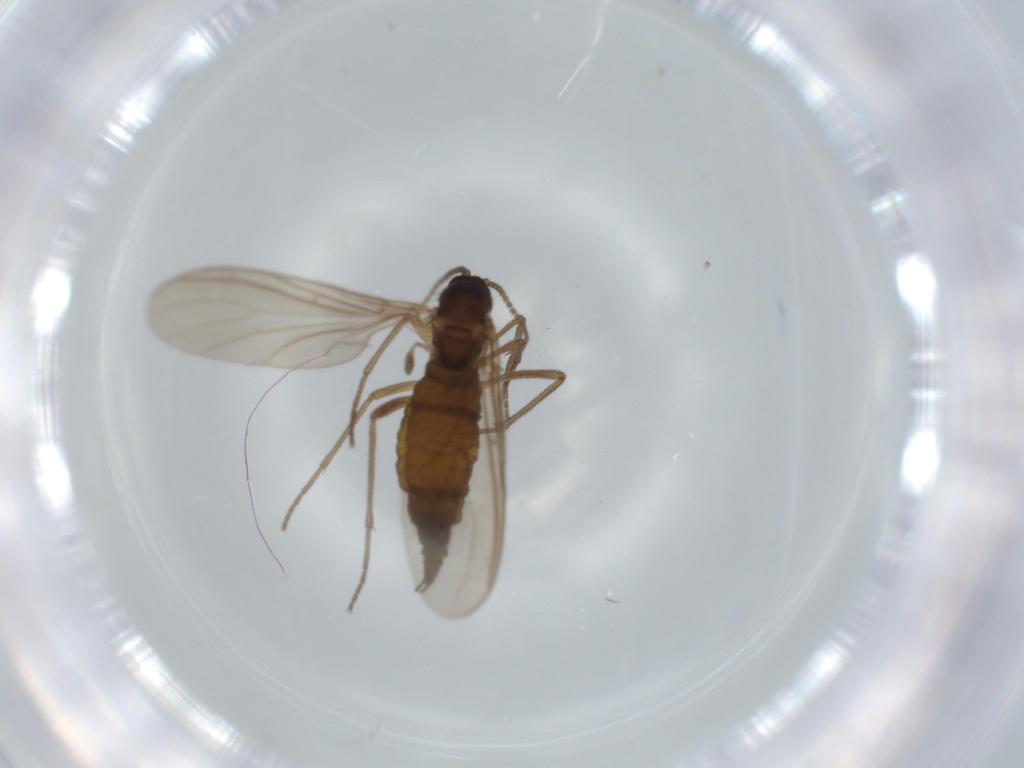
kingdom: Animalia
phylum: Arthropoda
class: Insecta
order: Diptera
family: Sciaridae
